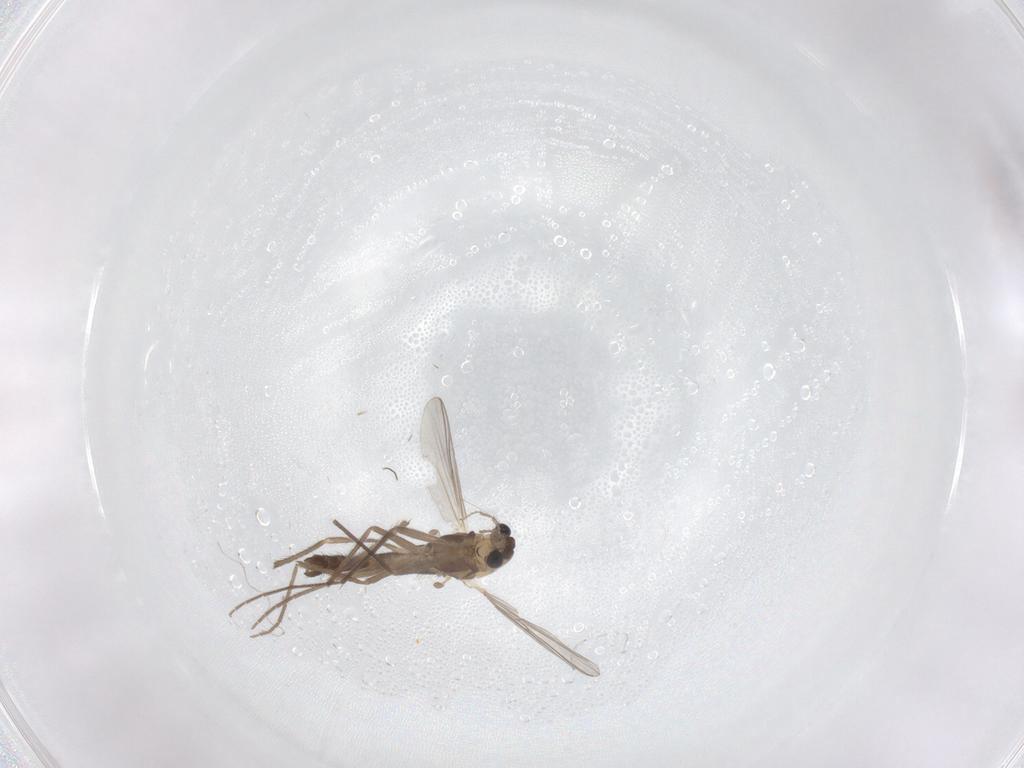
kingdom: Animalia
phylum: Arthropoda
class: Insecta
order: Diptera
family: Chironomidae
